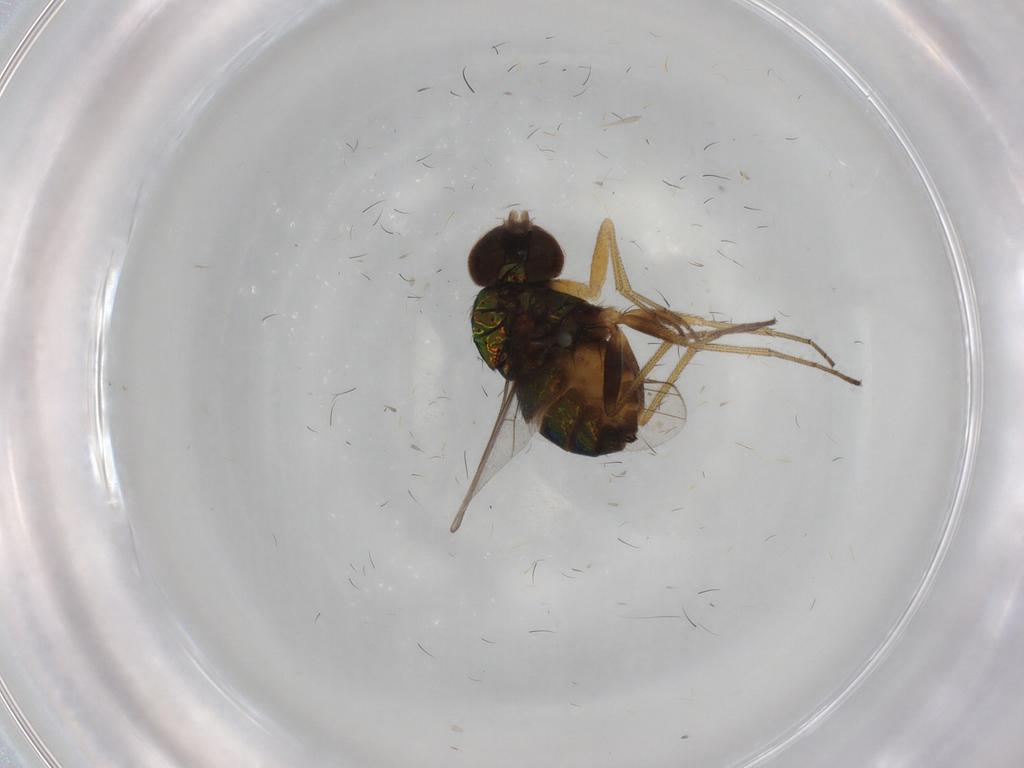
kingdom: Animalia
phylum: Arthropoda
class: Insecta
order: Diptera
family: Dolichopodidae
